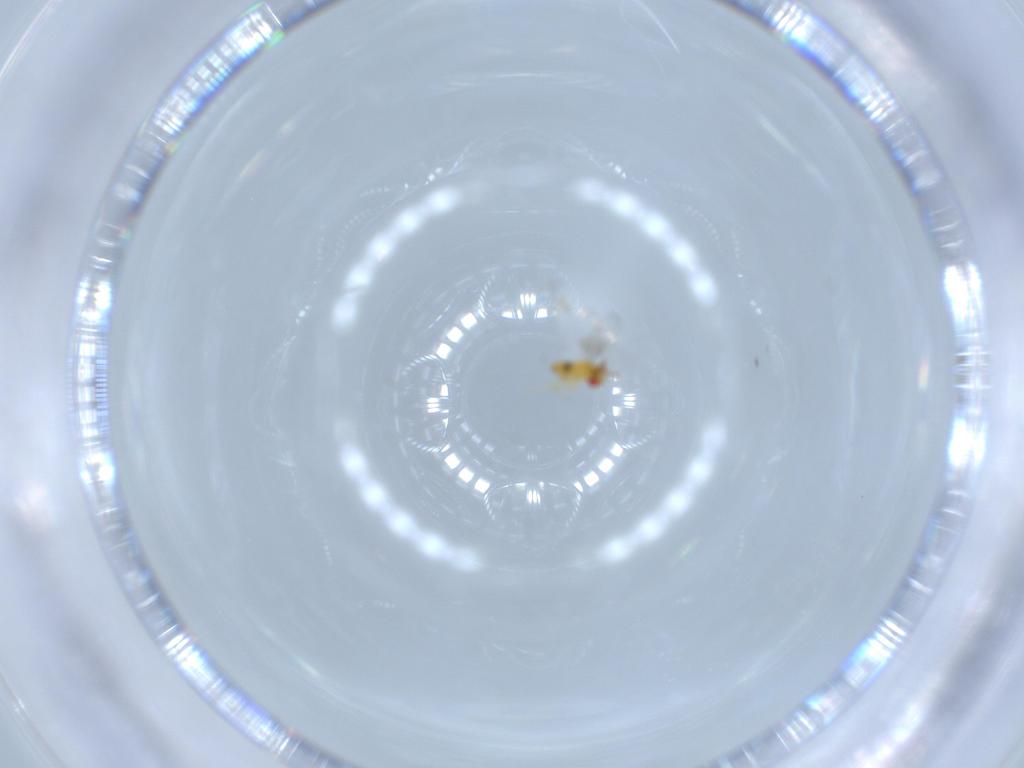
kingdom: Animalia
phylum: Arthropoda
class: Insecta
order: Hymenoptera
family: Trichogrammatidae
